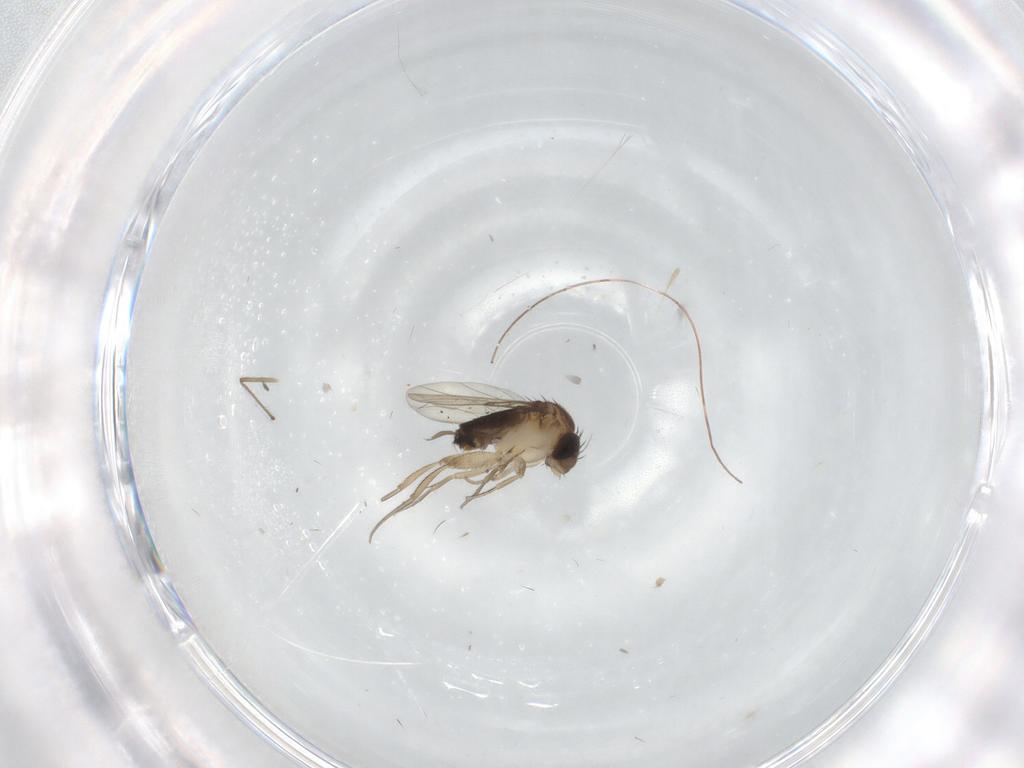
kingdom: Animalia
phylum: Arthropoda
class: Insecta
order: Diptera
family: Chironomidae
